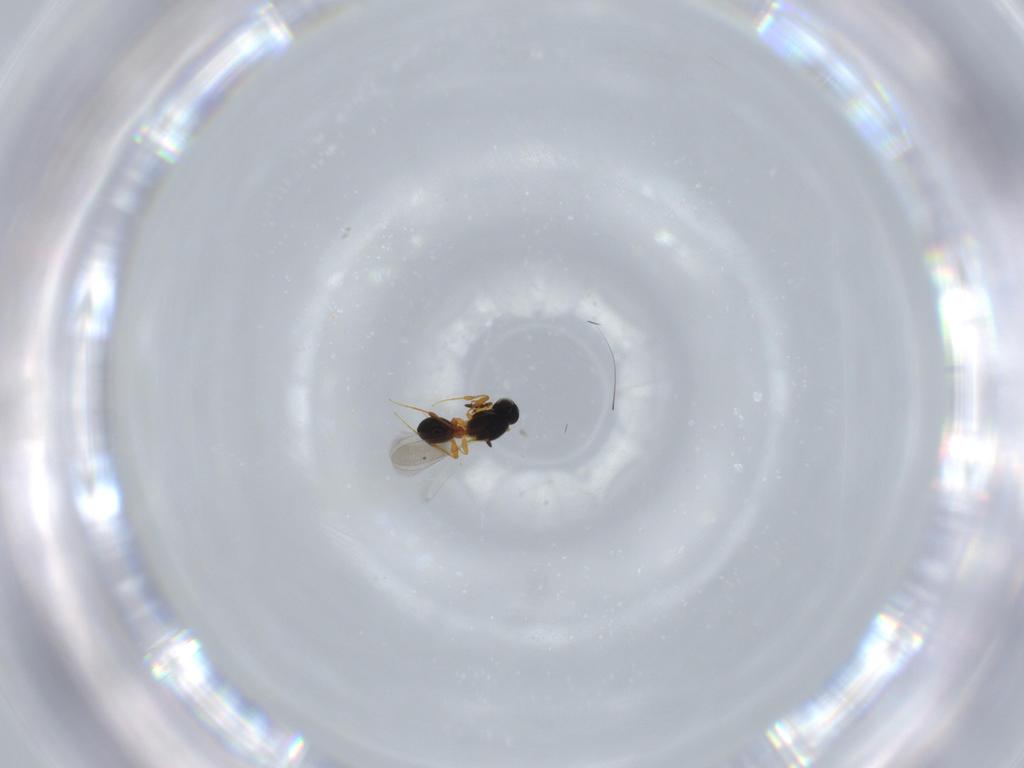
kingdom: Animalia
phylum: Arthropoda
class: Insecta
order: Hymenoptera
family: Platygastridae
